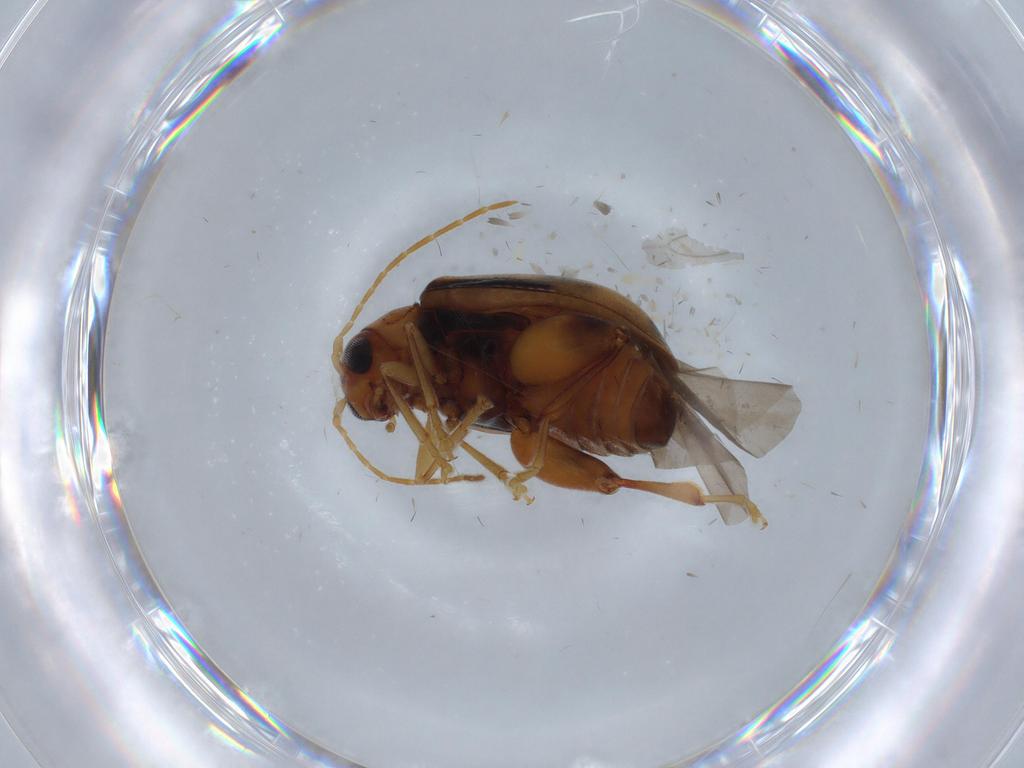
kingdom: Animalia
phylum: Arthropoda
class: Insecta
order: Coleoptera
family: Chrysomelidae
